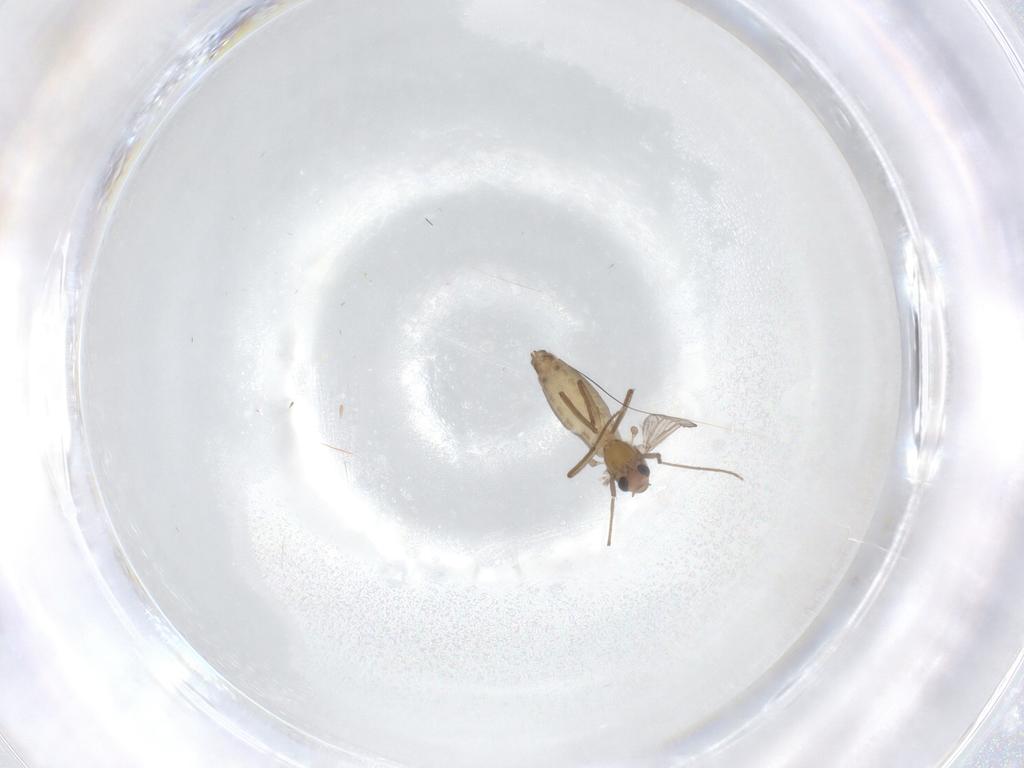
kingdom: Animalia
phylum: Arthropoda
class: Insecta
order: Diptera
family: Chironomidae
